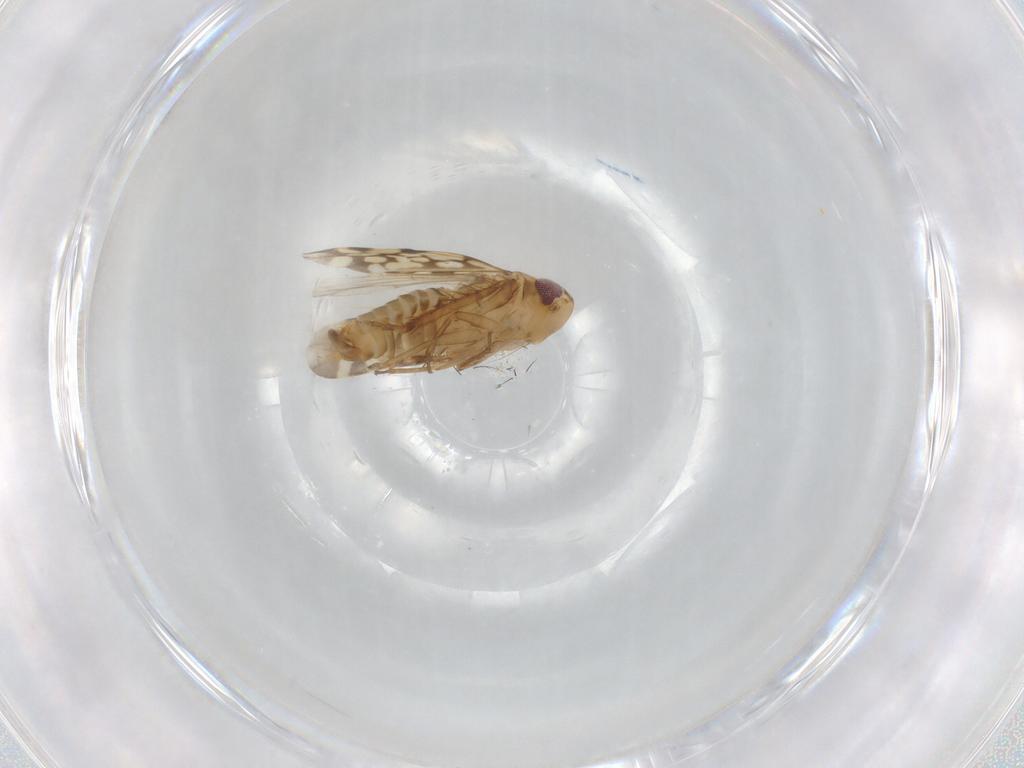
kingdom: Animalia
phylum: Arthropoda
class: Insecta
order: Hemiptera
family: Cicadellidae
